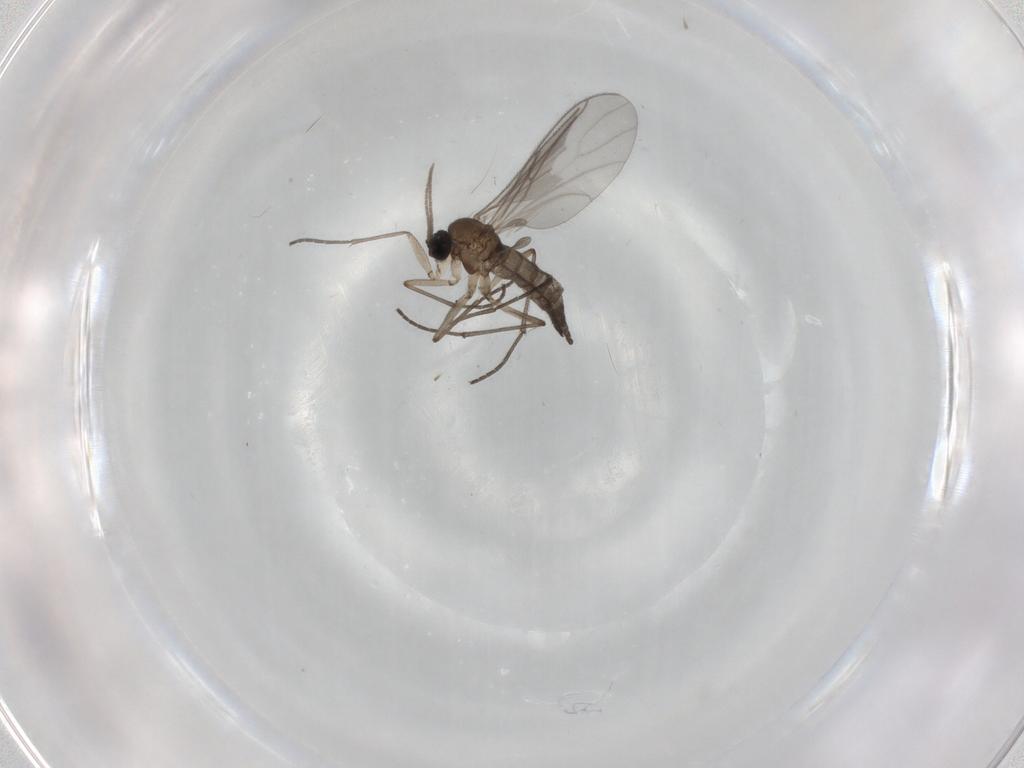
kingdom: Animalia
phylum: Arthropoda
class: Insecta
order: Diptera
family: Sciaridae
